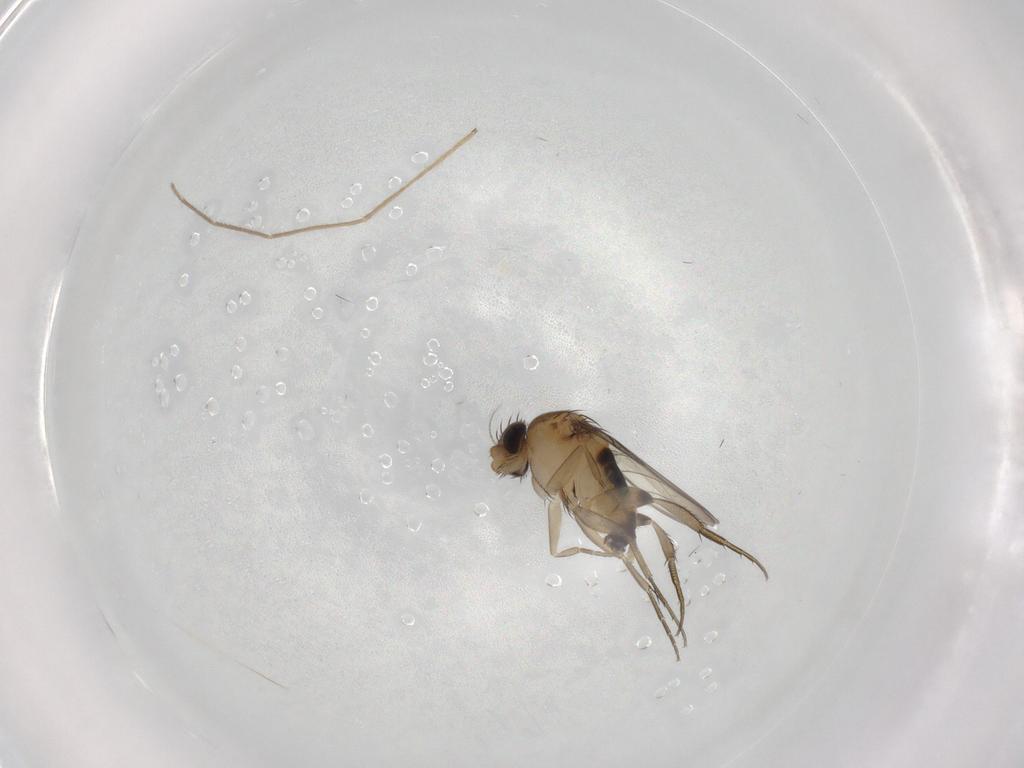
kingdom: Animalia
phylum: Arthropoda
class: Insecta
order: Diptera
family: Phoridae
